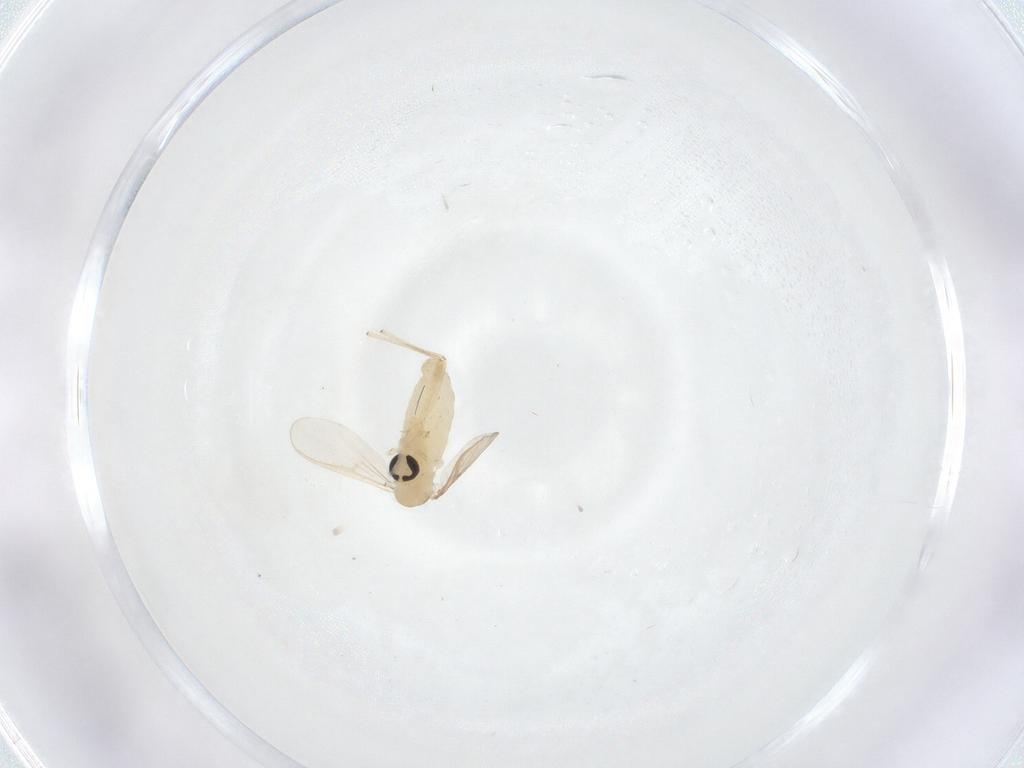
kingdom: Animalia
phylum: Arthropoda
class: Insecta
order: Diptera
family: Chironomidae
